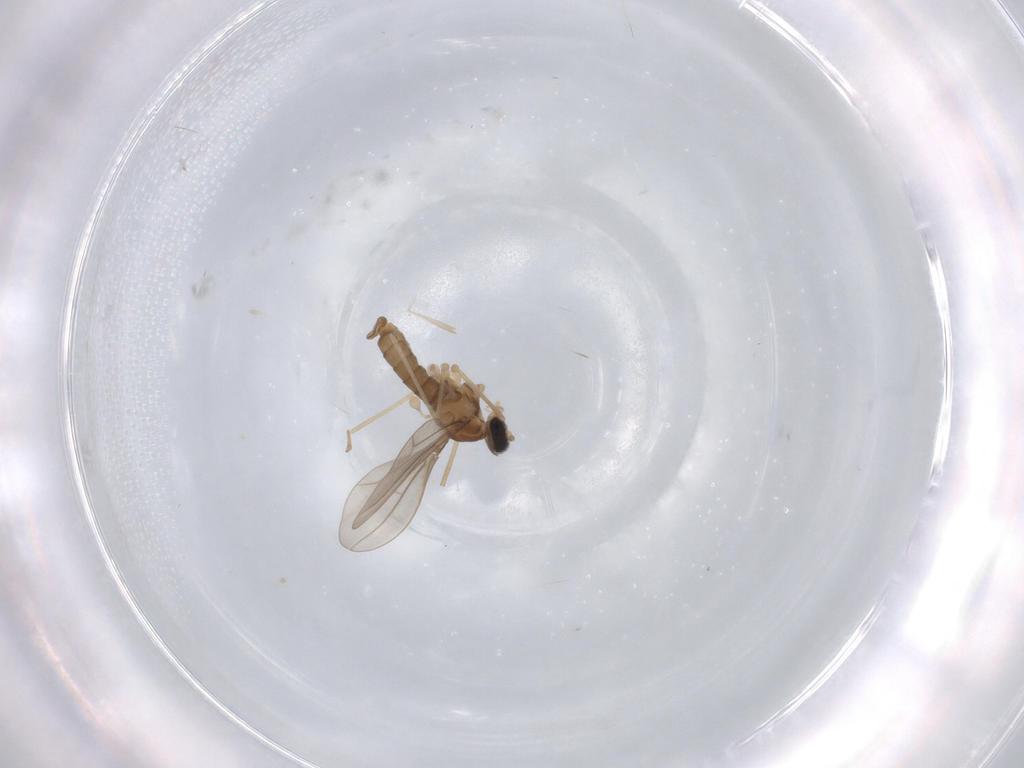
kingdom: Animalia
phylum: Arthropoda
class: Insecta
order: Diptera
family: Cecidomyiidae
